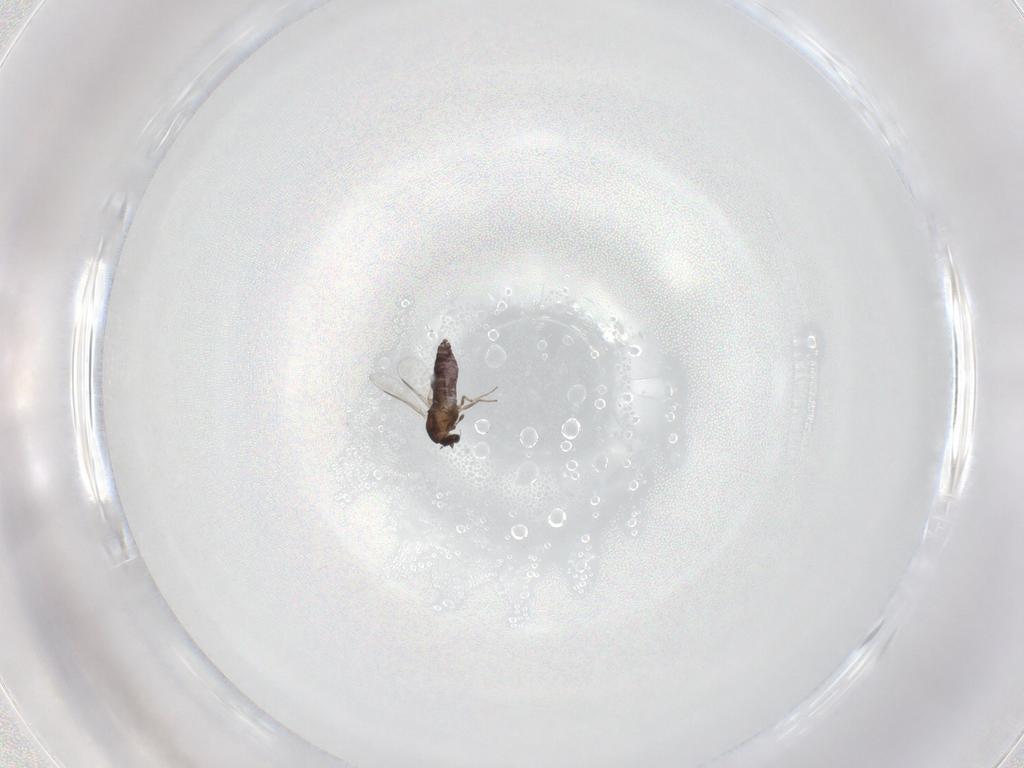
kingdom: Animalia
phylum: Arthropoda
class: Insecta
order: Diptera
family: Chironomidae
